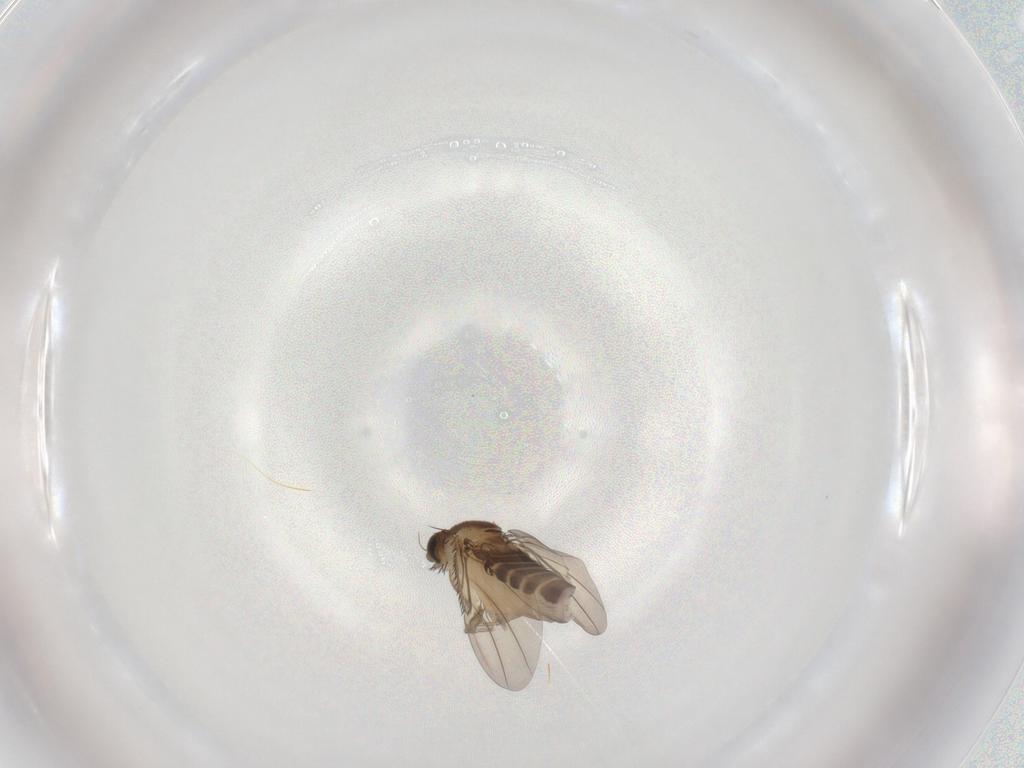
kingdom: Animalia
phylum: Arthropoda
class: Insecta
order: Diptera
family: Phoridae
